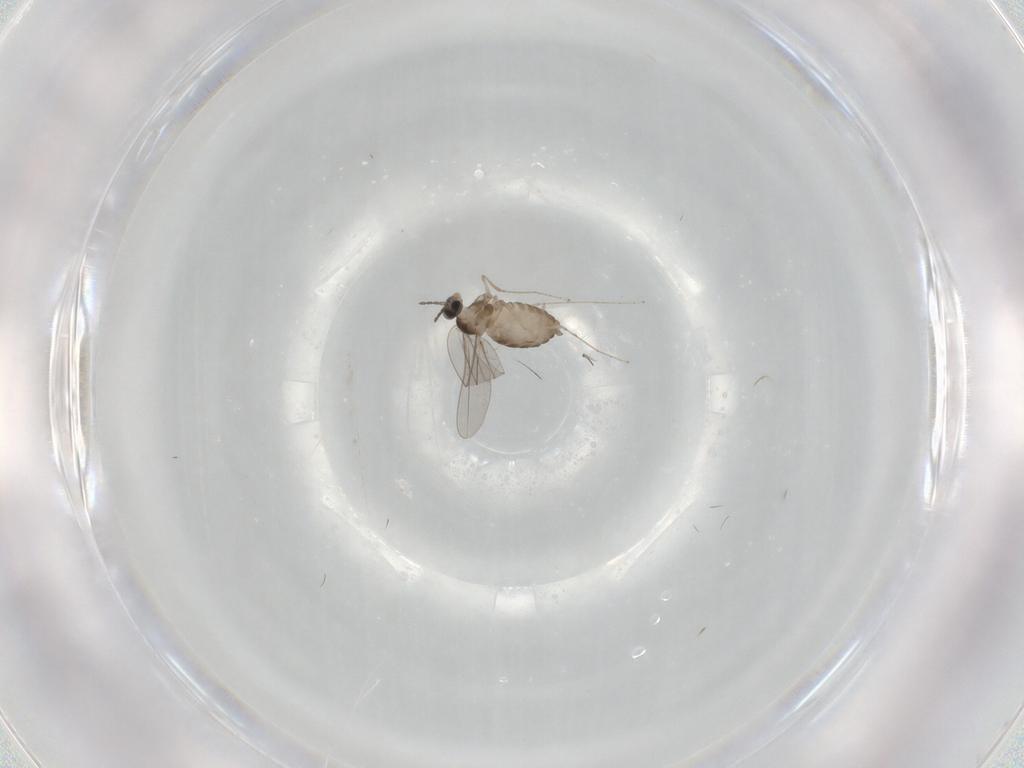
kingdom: Animalia
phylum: Arthropoda
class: Insecta
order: Diptera
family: Cecidomyiidae
